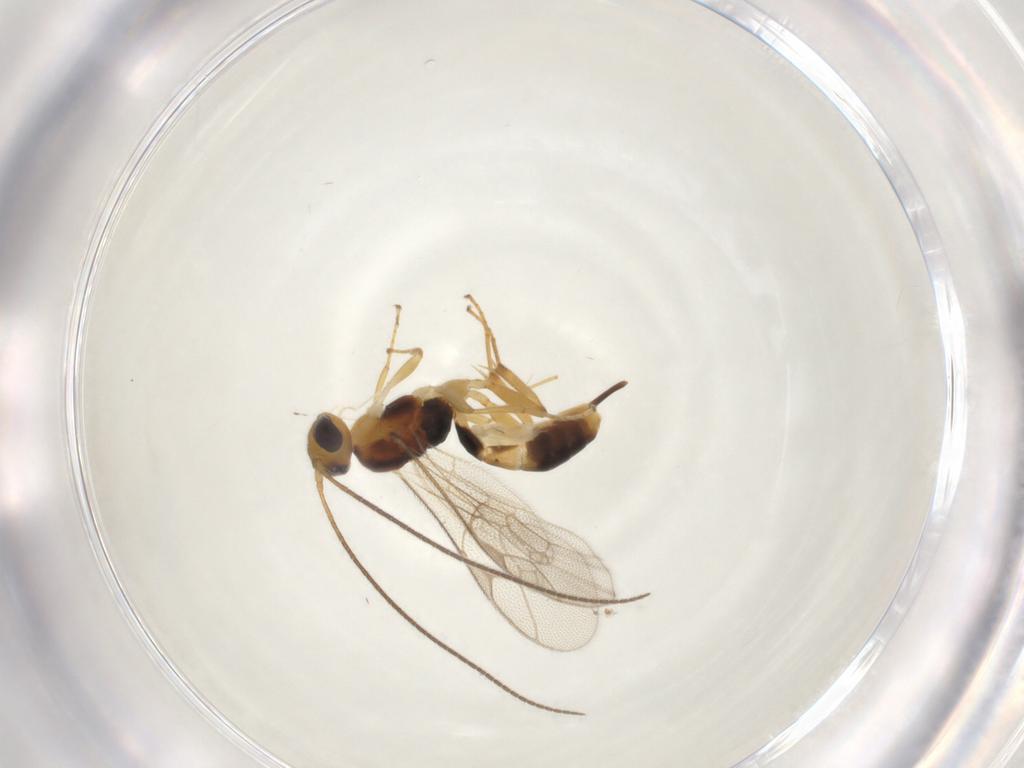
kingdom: Animalia
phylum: Arthropoda
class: Insecta
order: Hymenoptera
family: Ichneumonidae
